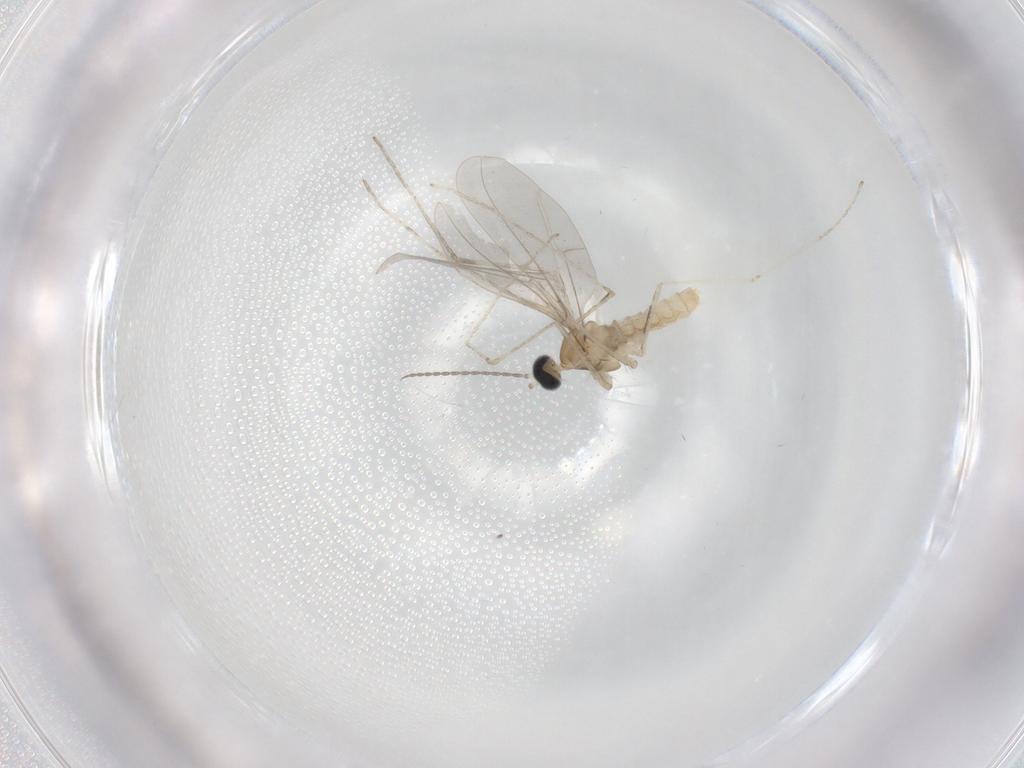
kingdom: Animalia
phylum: Arthropoda
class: Insecta
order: Diptera
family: Cecidomyiidae
